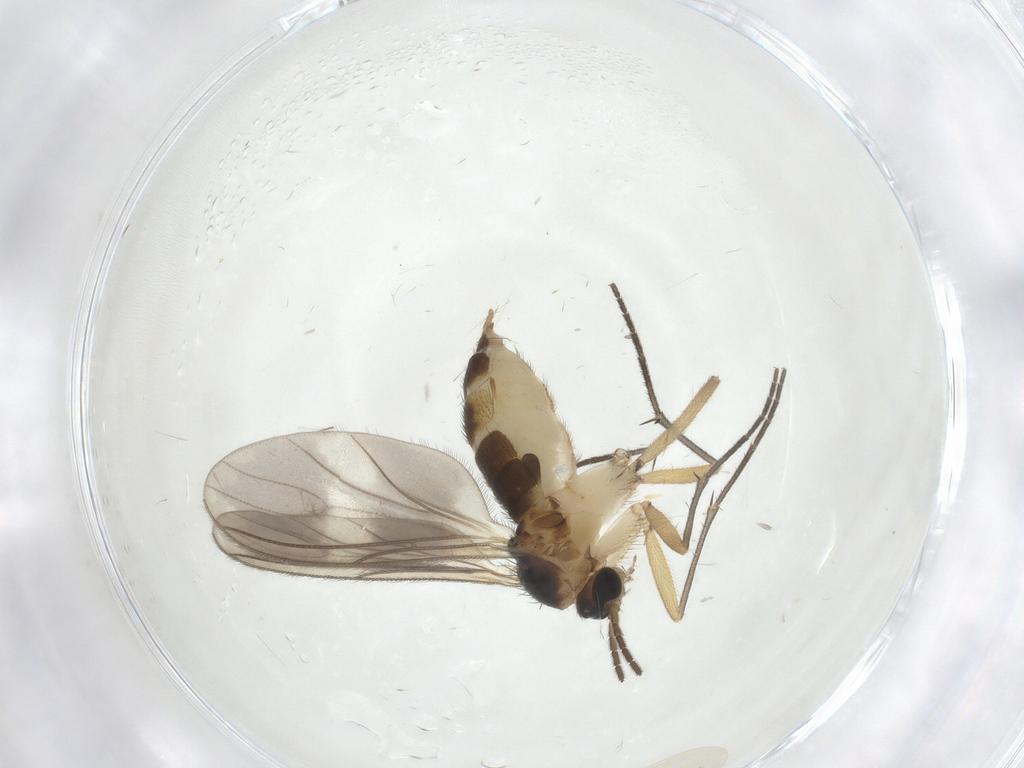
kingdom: Animalia
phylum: Arthropoda
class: Insecta
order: Diptera
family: Sciaridae
